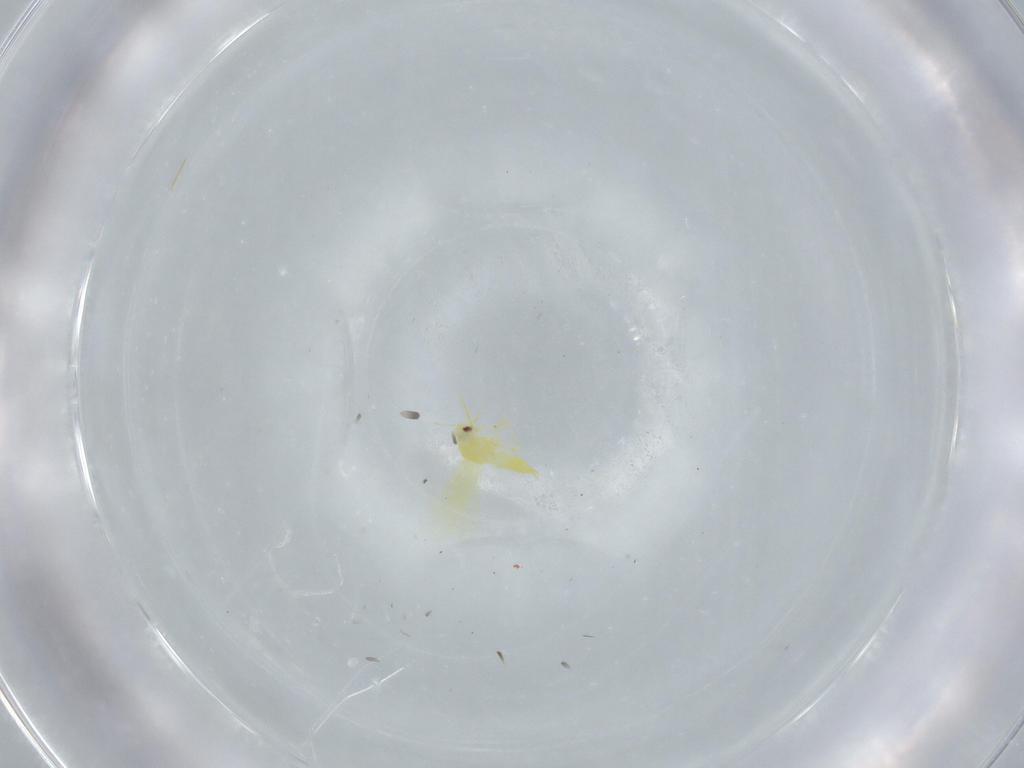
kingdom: Animalia
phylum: Arthropoda
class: Insecta
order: Hemiptera
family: Aleyrodidae
